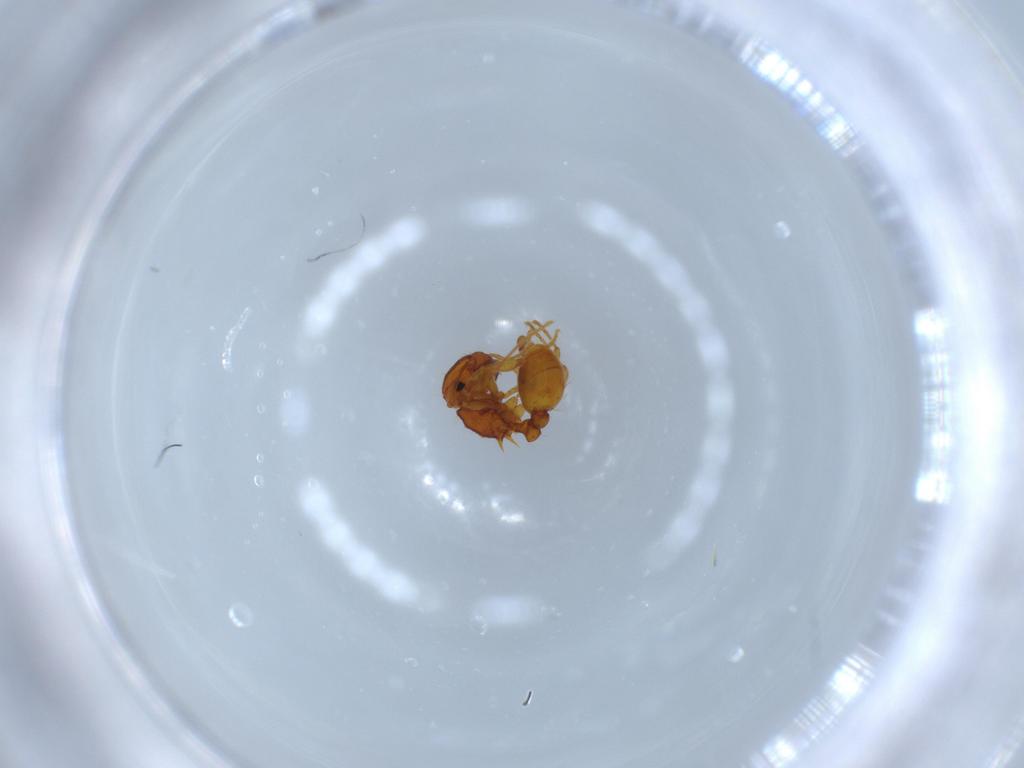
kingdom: Animalia
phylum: Arthropoda
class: Insecta
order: Hymenoptera
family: Formicidae
